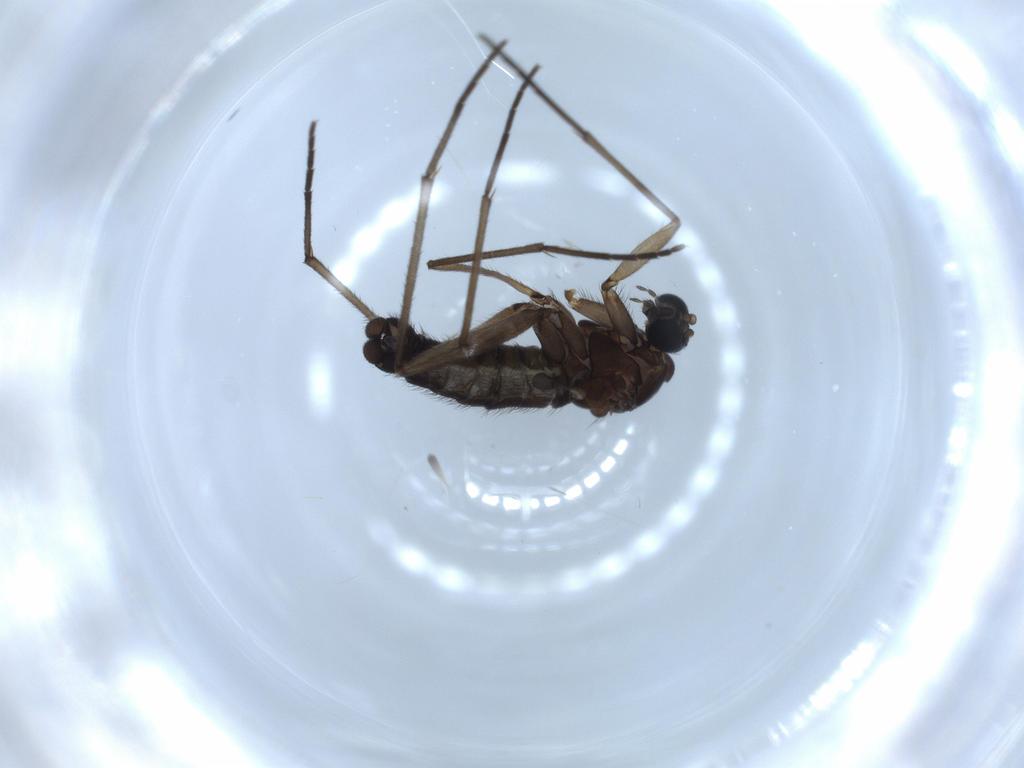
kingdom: Animalia
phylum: Arthropoda
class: Insecta
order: Diptera
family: Sciaridae
